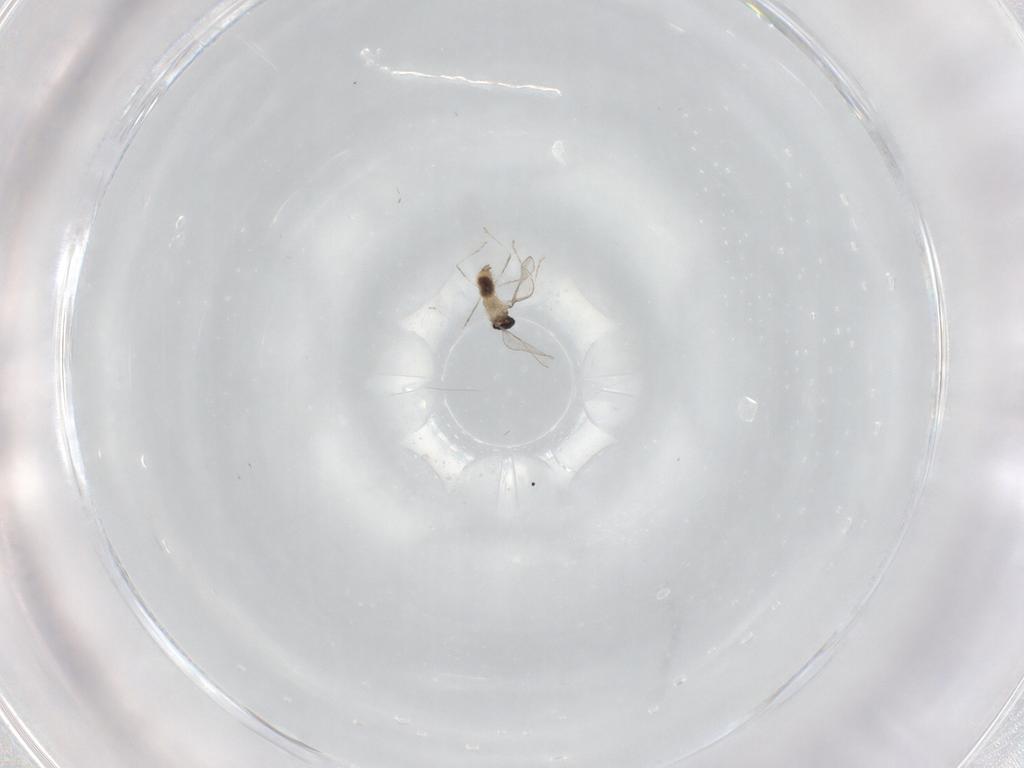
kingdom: Animalia
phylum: Arthropoda
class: Insecta
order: Diptera
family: Cecidomyiidae
